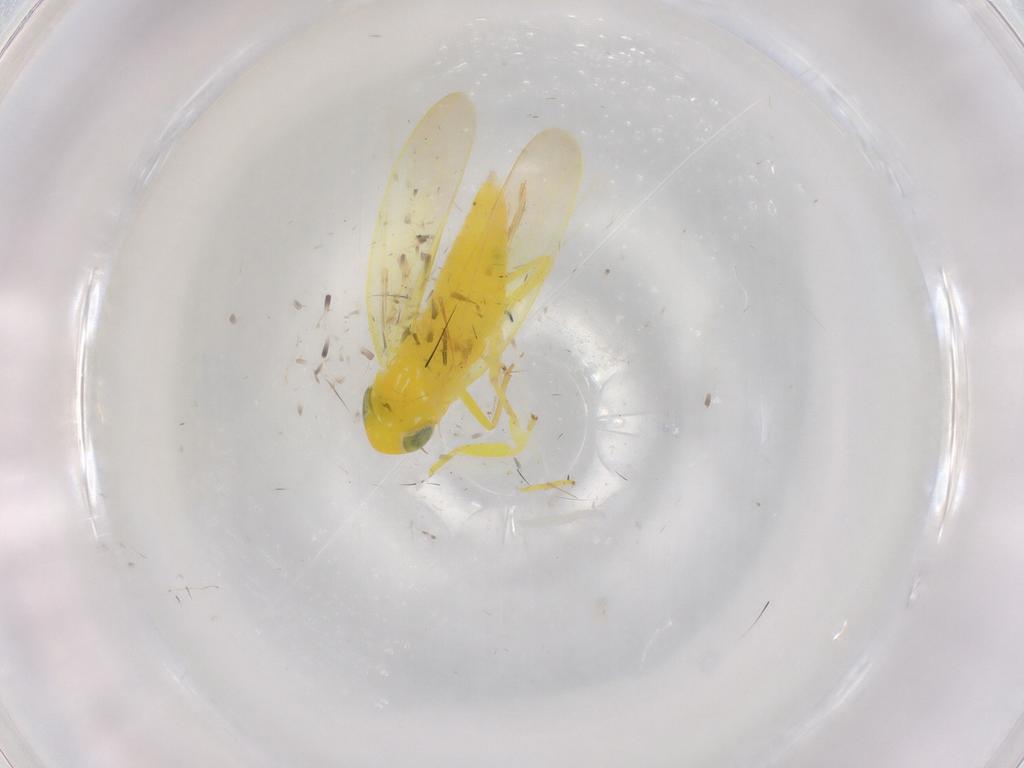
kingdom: Animalia
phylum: Arthropoda
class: Insecta
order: Hemiptera
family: Cicadellidae
